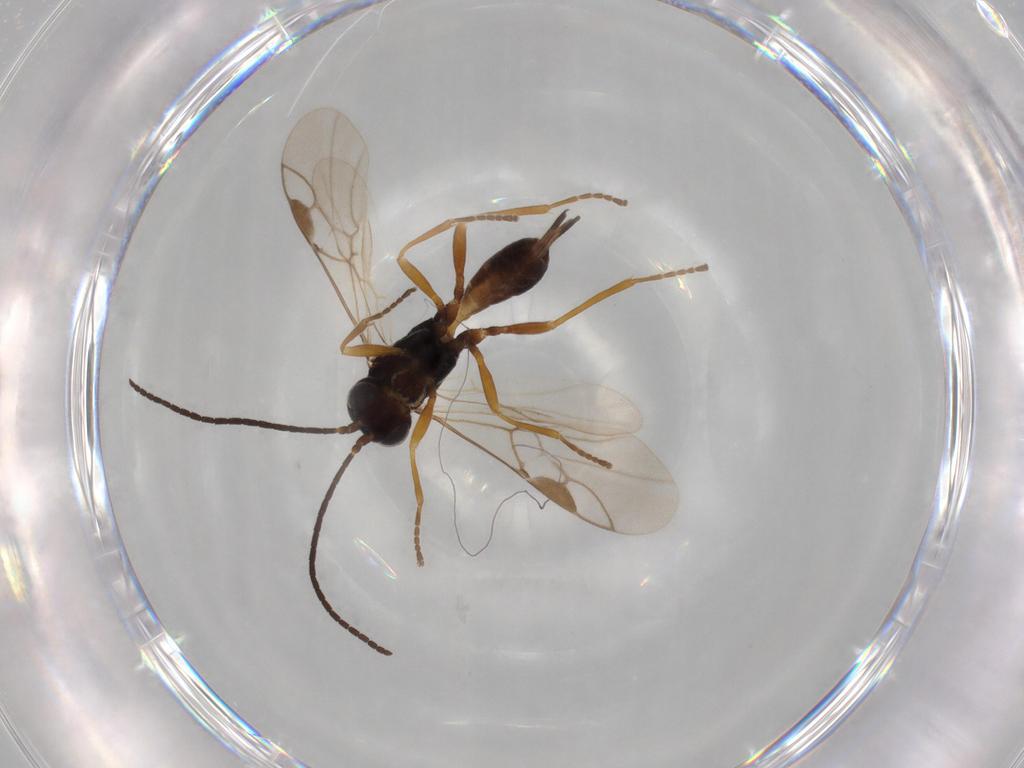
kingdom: Animalia
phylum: Arthropoda
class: Insecta
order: Hymenoptera
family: Braconidae
